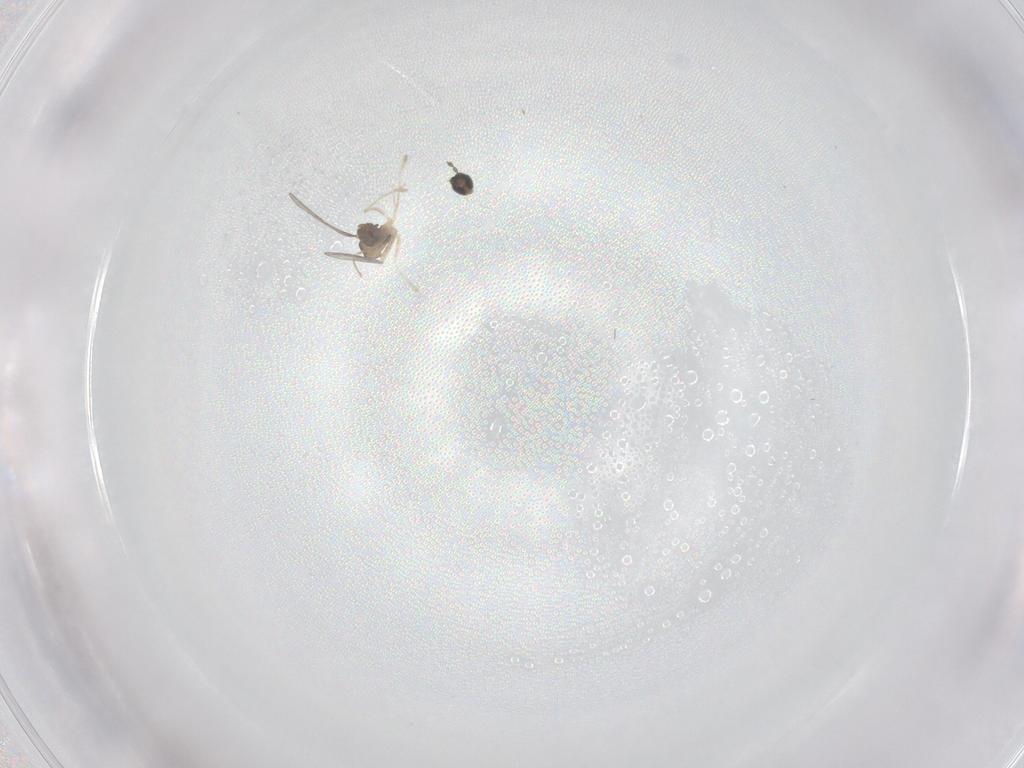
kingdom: Animalia
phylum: Arthropoda
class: Insecta
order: Diptera
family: Cecidomyiidae
